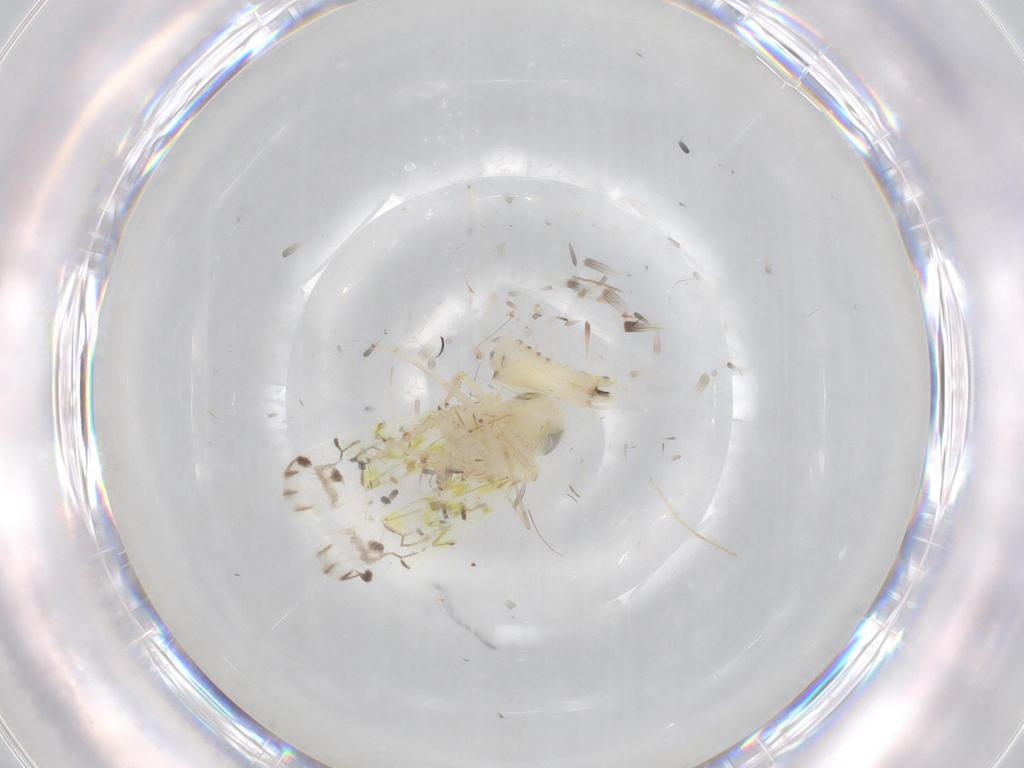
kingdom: Animalia
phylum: Arthropoda
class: Insecta
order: Hemiptera
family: Cicadellidae
